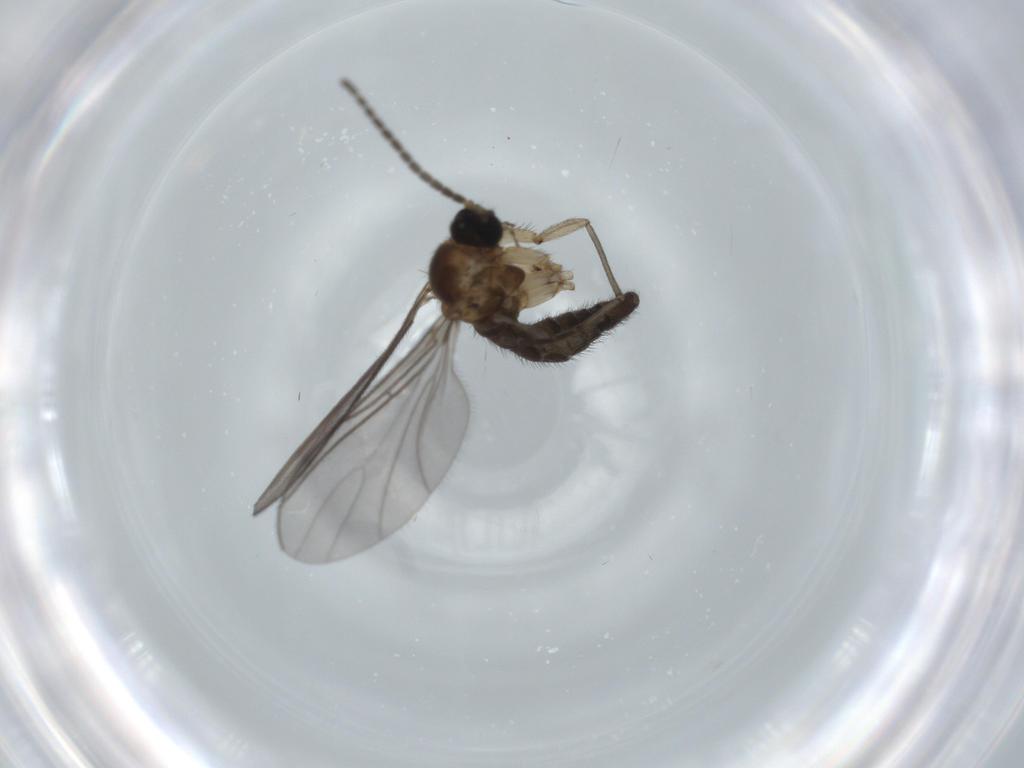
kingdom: Animalia
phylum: Arthropoda
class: Insecta
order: Diptera
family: Sciaridae
